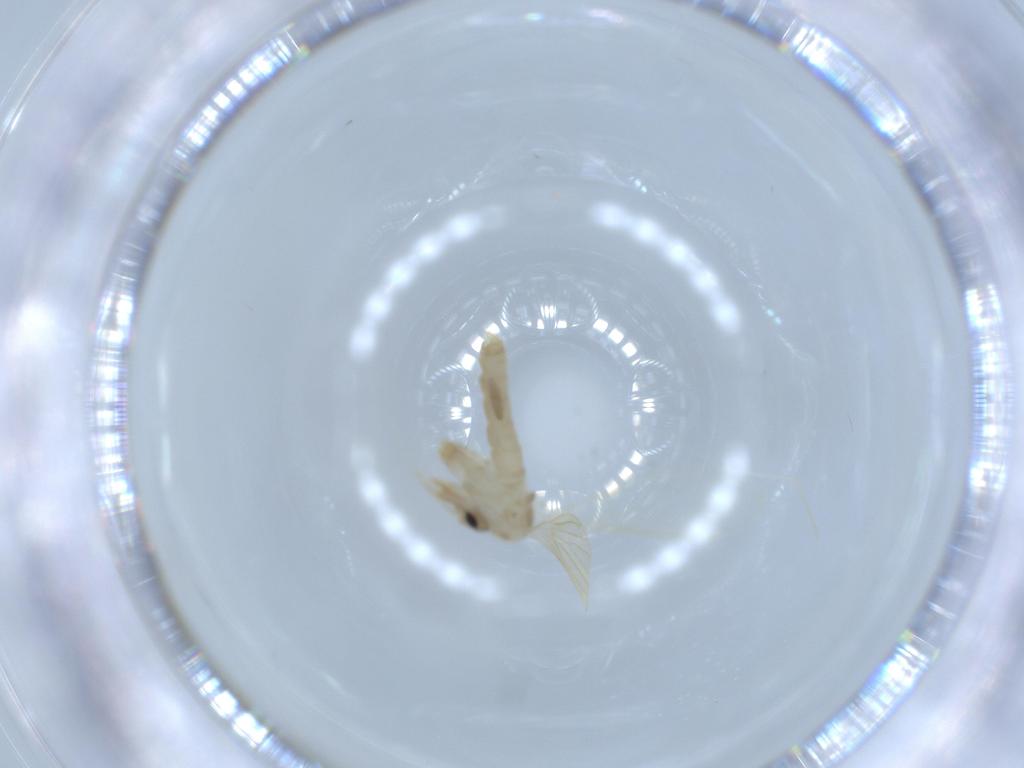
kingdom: Animalia
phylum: Arthropoda
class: Insecta
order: Diptera
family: Psychodidae
